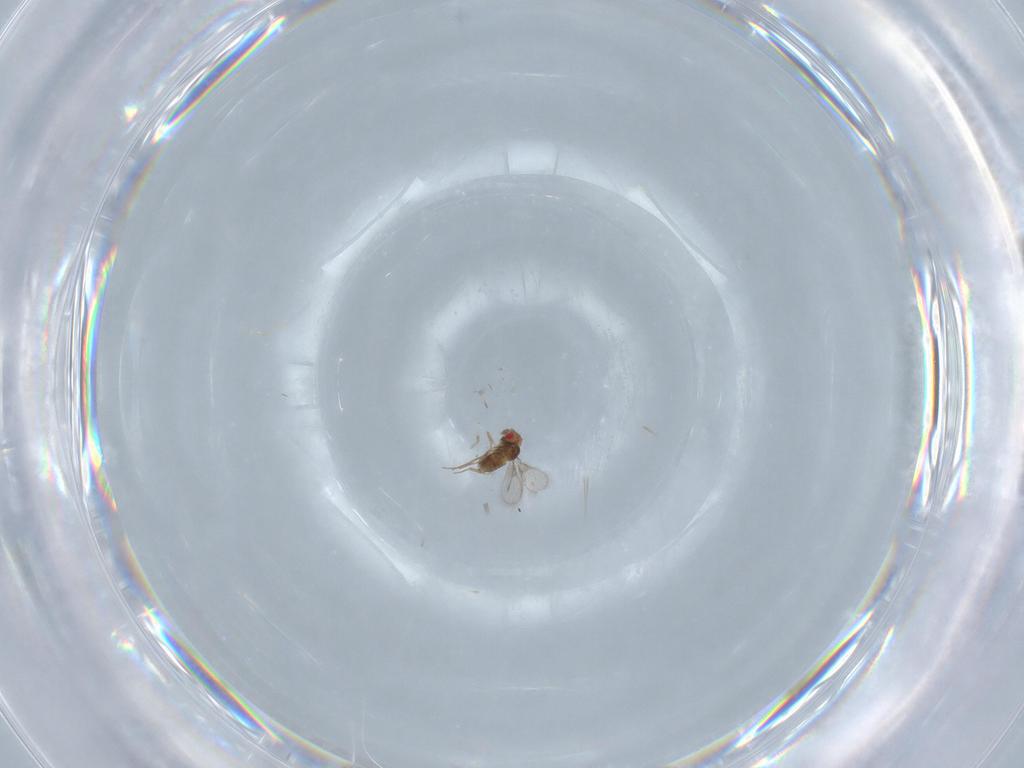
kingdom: Animalia
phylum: Arthropoda
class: Insecta
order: Hymenoptera
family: Trichogrammatidae
